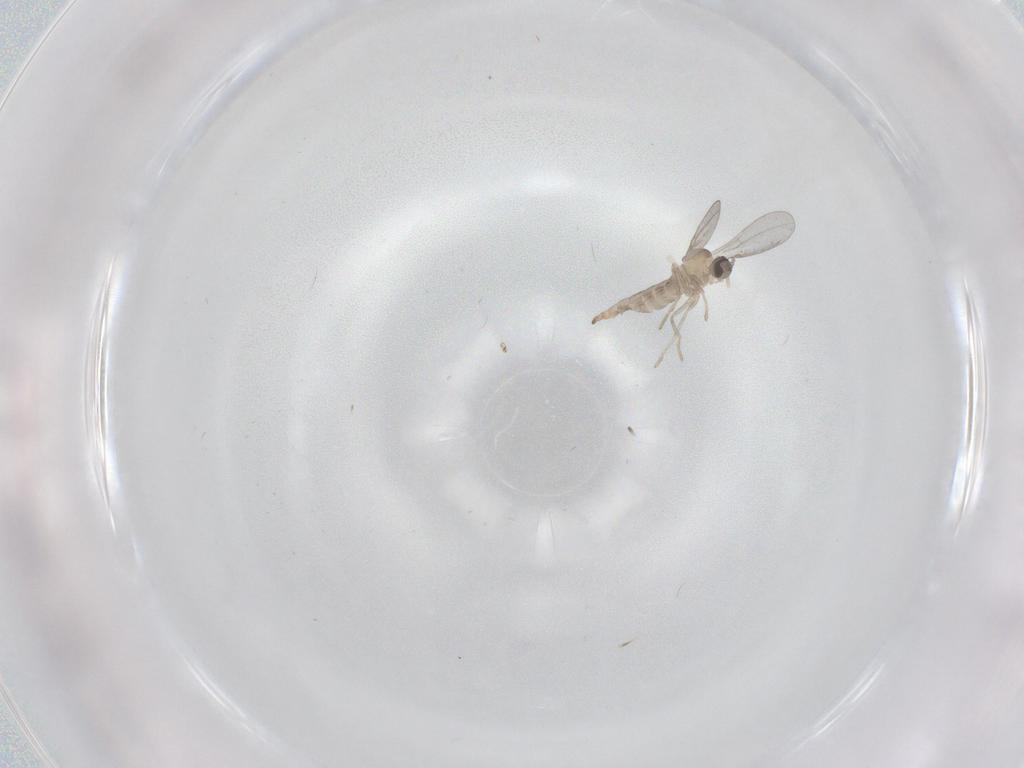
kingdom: Animalia
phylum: Arthropoda
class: Insecta
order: Diptera
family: Cecidomyiidae
